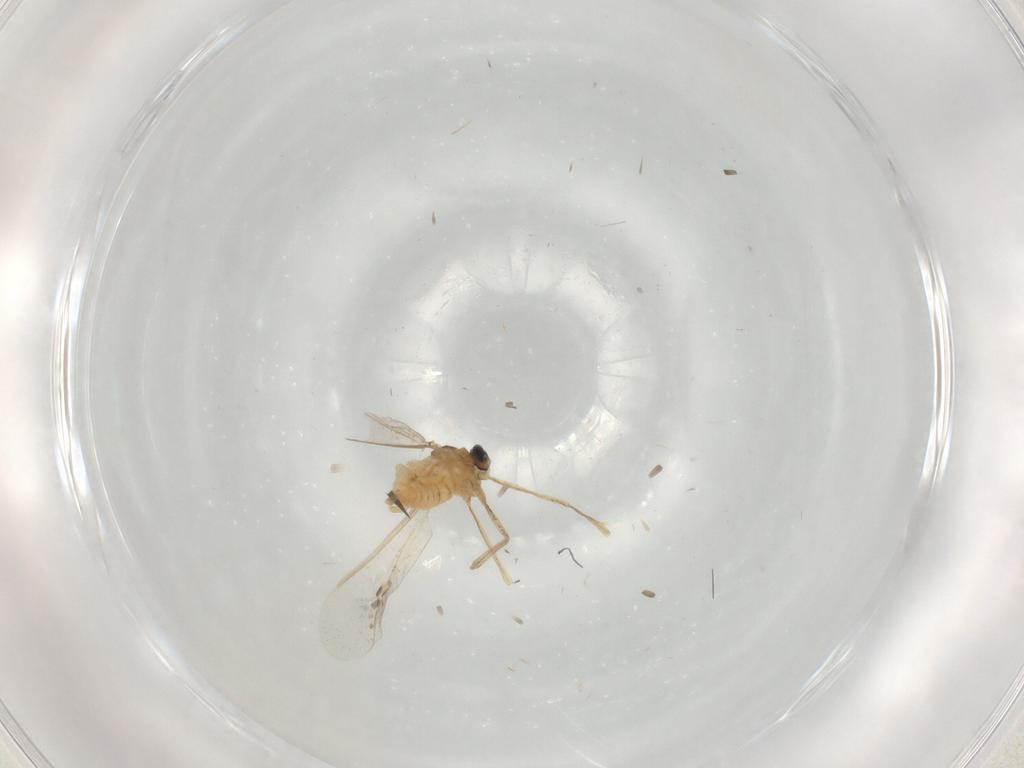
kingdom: Animalia
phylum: Arthropoda
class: Insecta
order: Diptera
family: Cecidomyiidae
